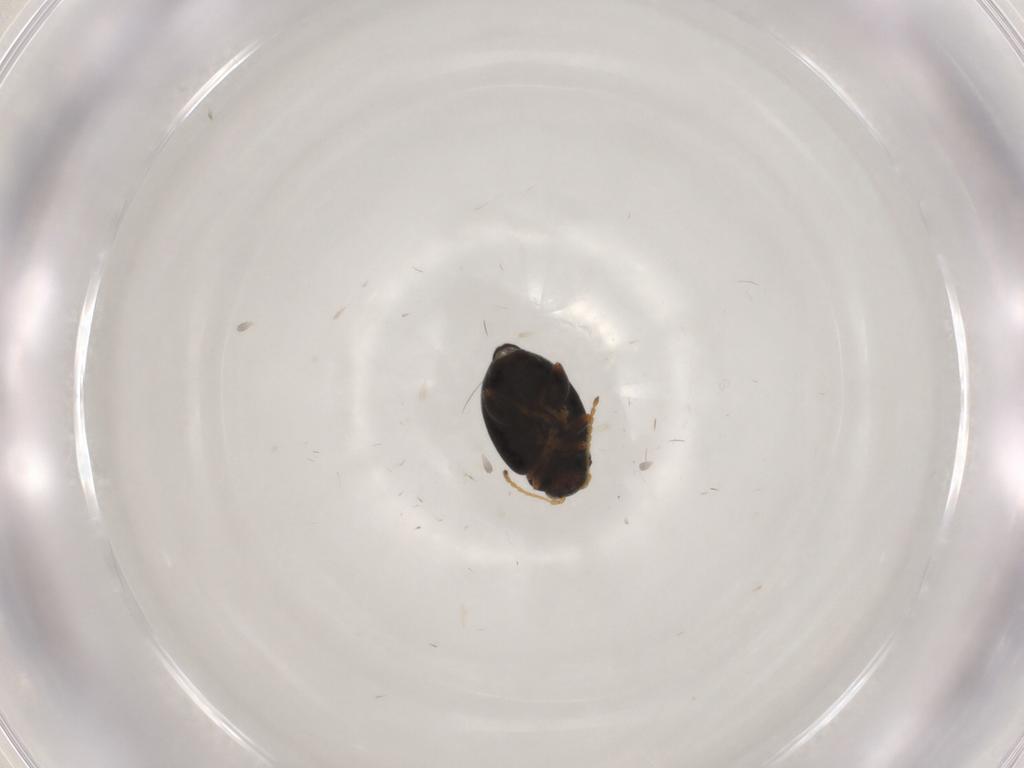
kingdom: Animalia
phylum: Arthropoda
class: Insecta
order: Coleoptera
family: Chrysomelidae
